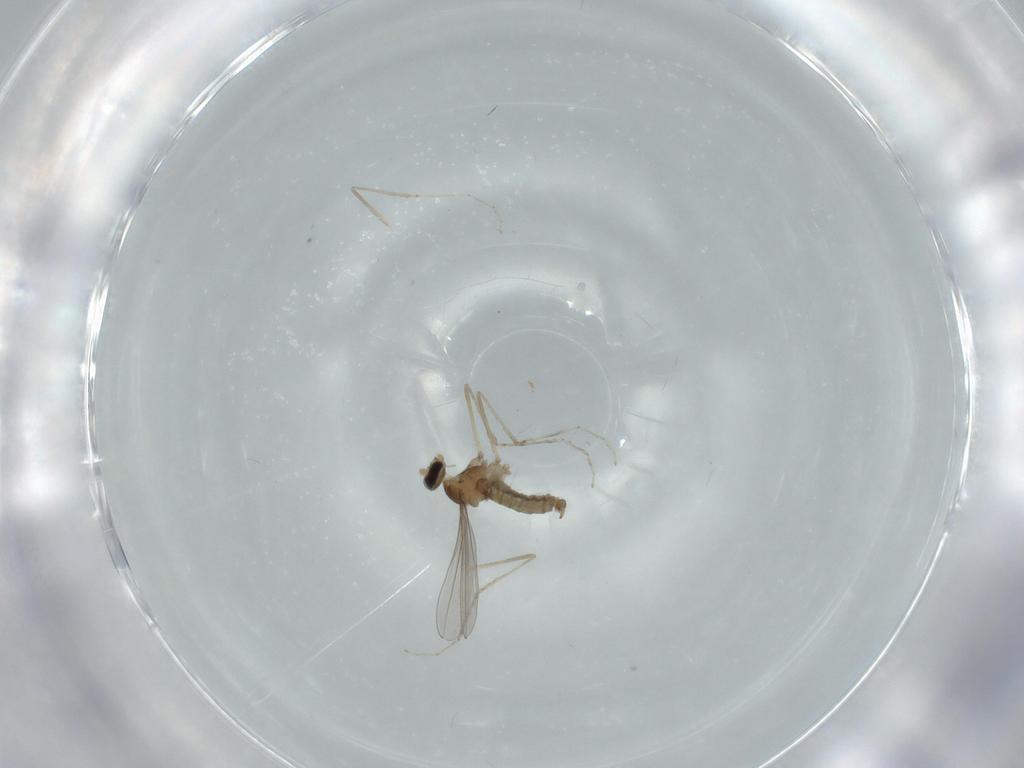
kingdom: Animalia
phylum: Arthropoda
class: Insecta
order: Diptera
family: Cecidomyiidae
